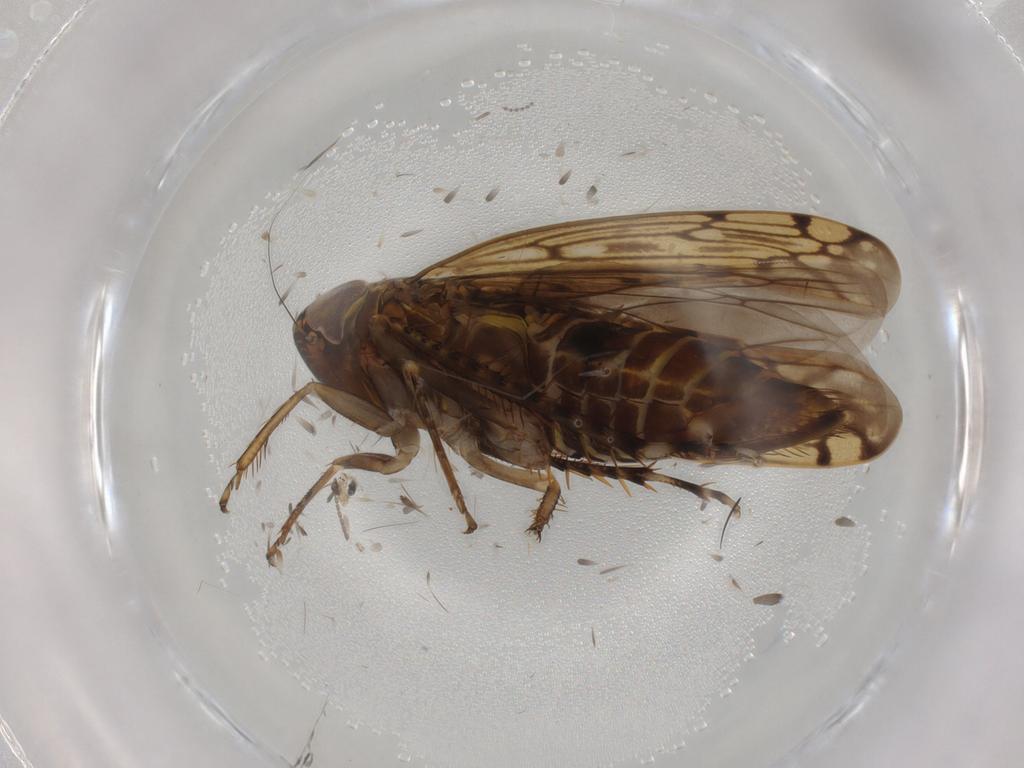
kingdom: Animalia
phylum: Arthropoda
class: Insecta
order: Hemiptera
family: Cicadellidae
